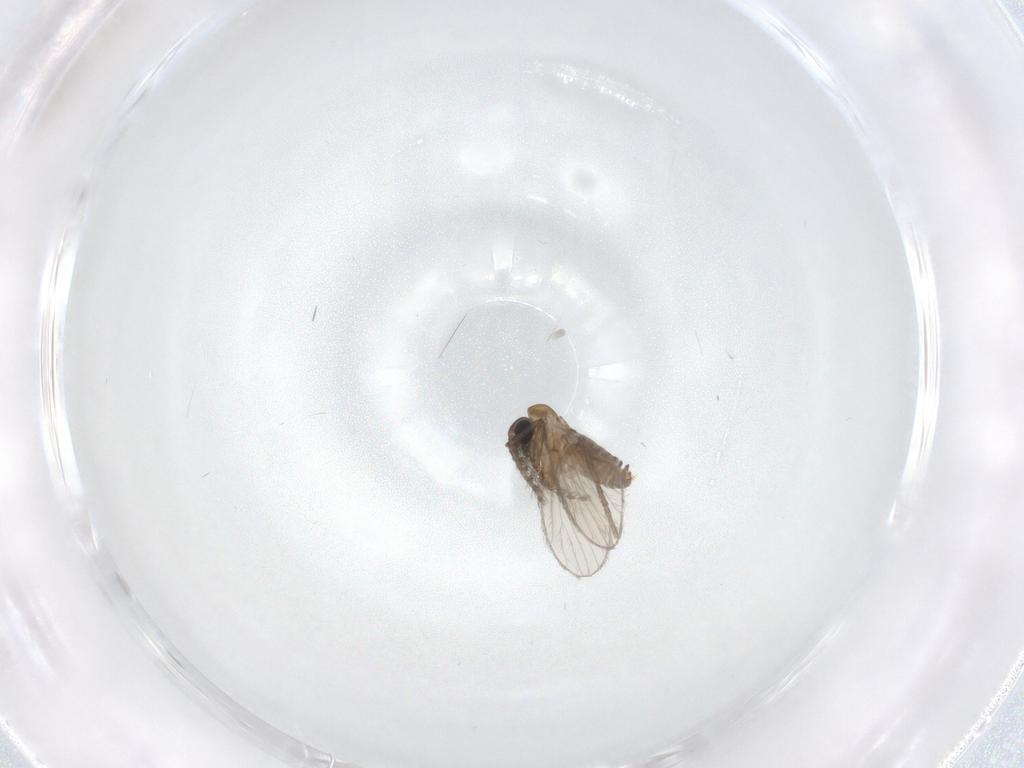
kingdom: Animalia
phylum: Arthropoda
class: Insecta
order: Diptera
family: Psychodidae
